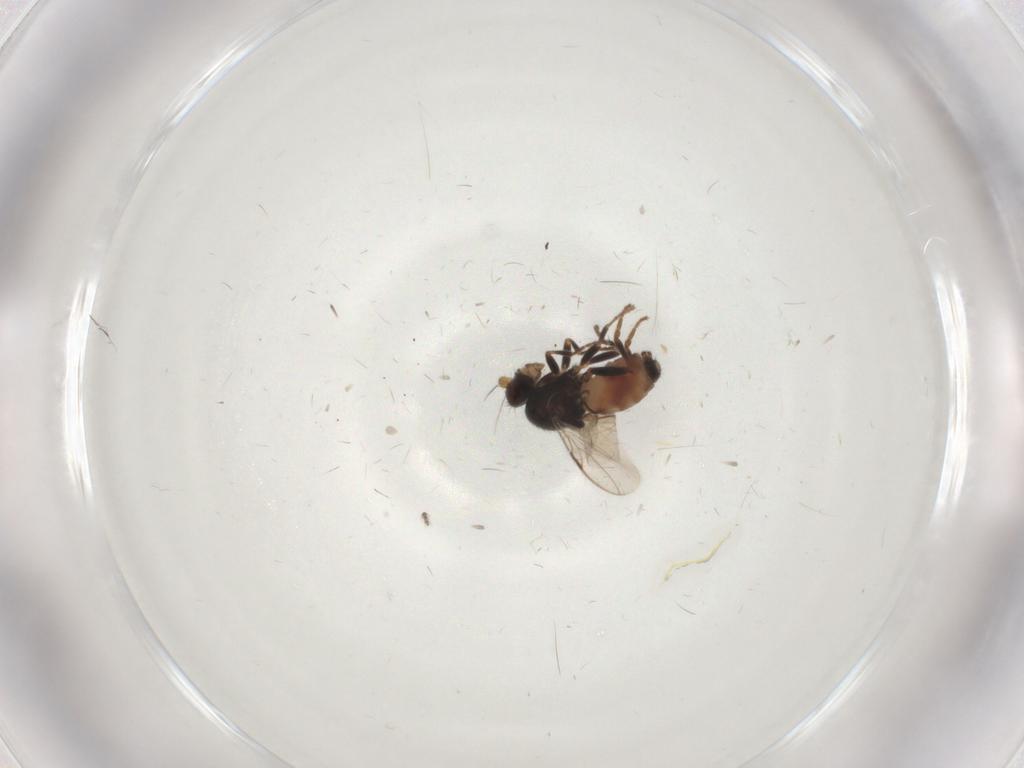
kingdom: Animalia
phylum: Arthropoda
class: Insecta
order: Diptera
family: Sphaeroceridae
